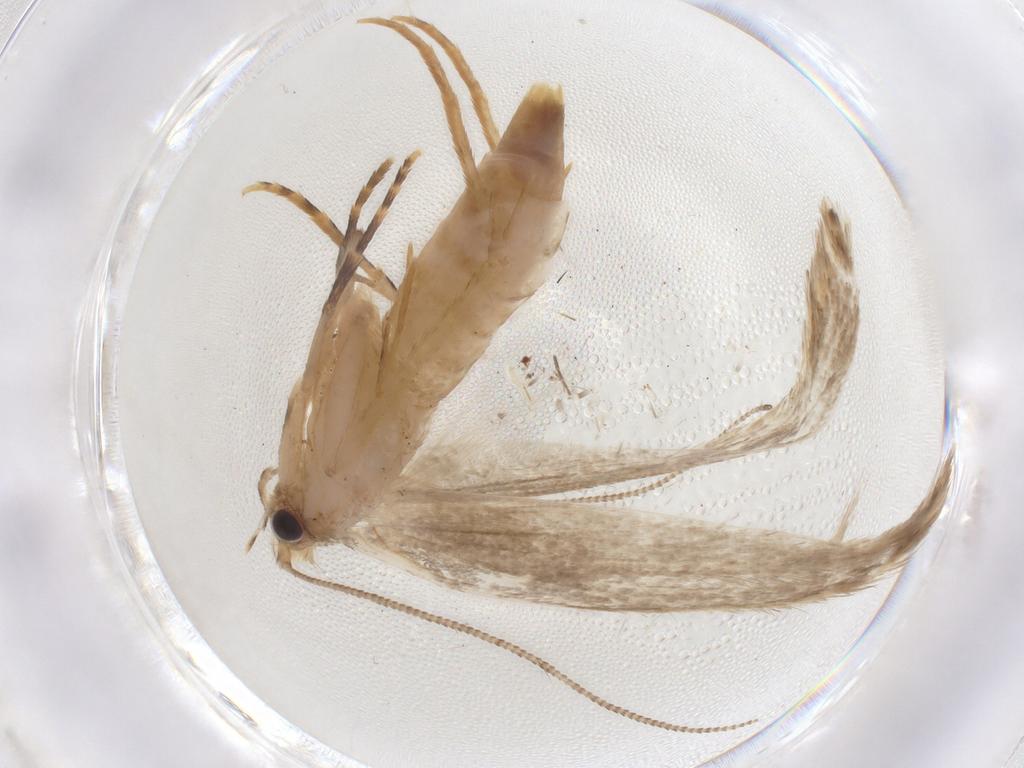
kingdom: Animalia
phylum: Arthropoda
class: Insecta
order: Lepidoptera
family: Tineidae
